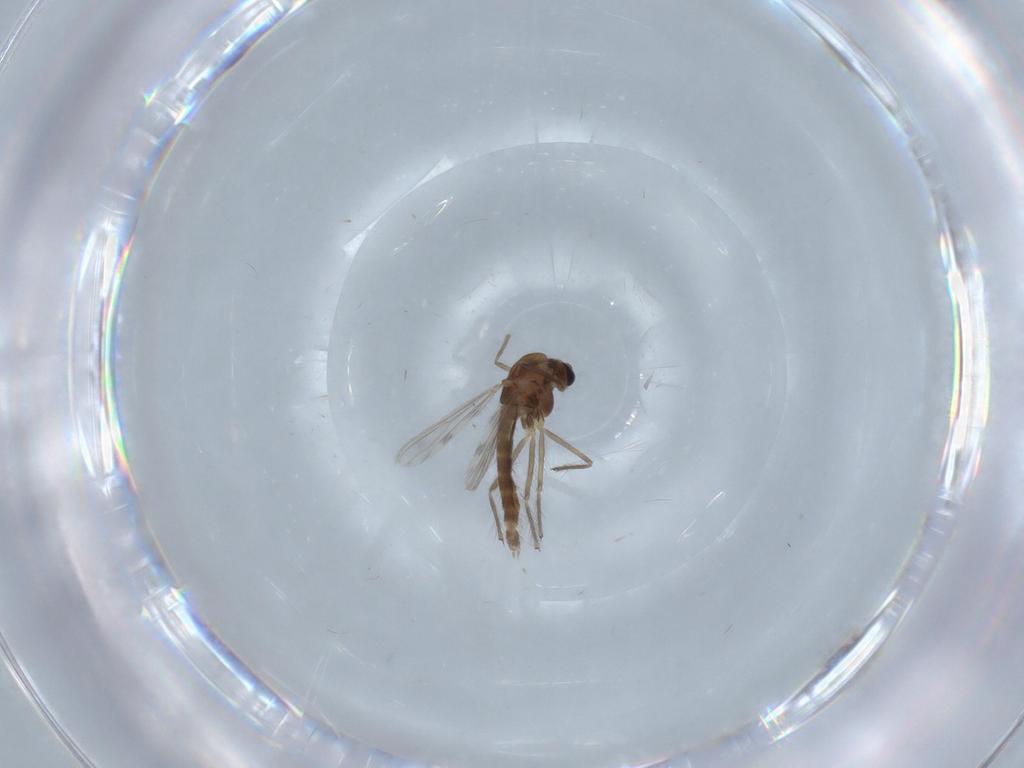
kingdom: Animalia
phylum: Arthropoda
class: Insecta
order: Diptera
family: Chironomidae
